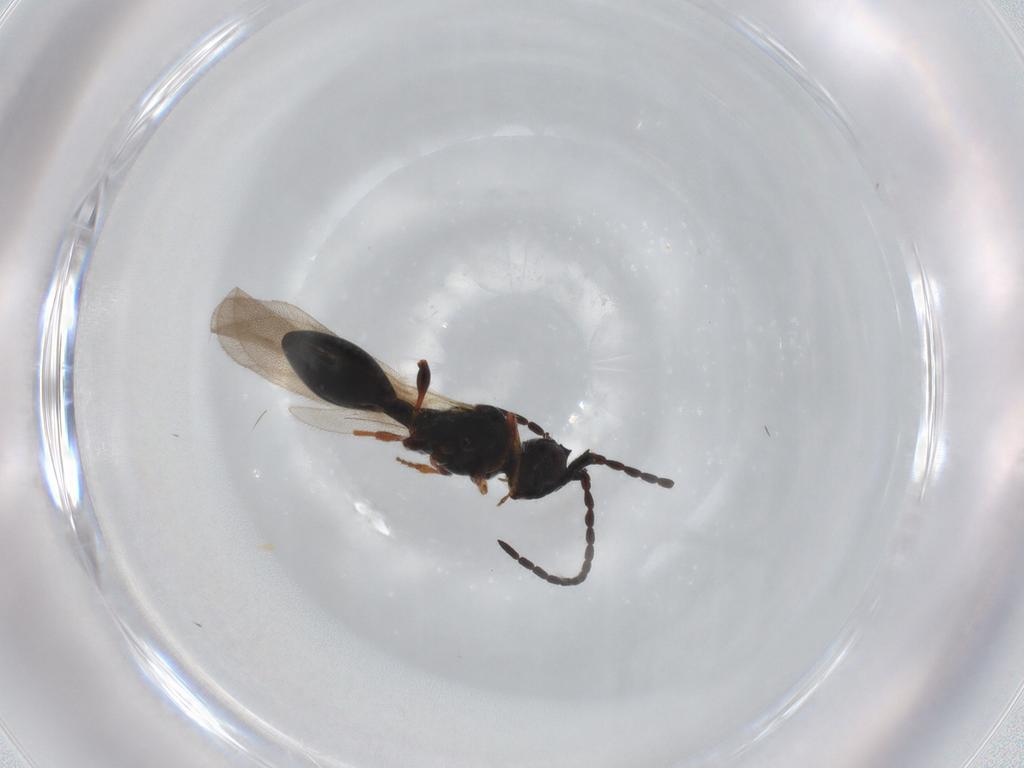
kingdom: Animalia
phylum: Arthropoda
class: Insecta
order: Hymenoptera
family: Diapriidae
